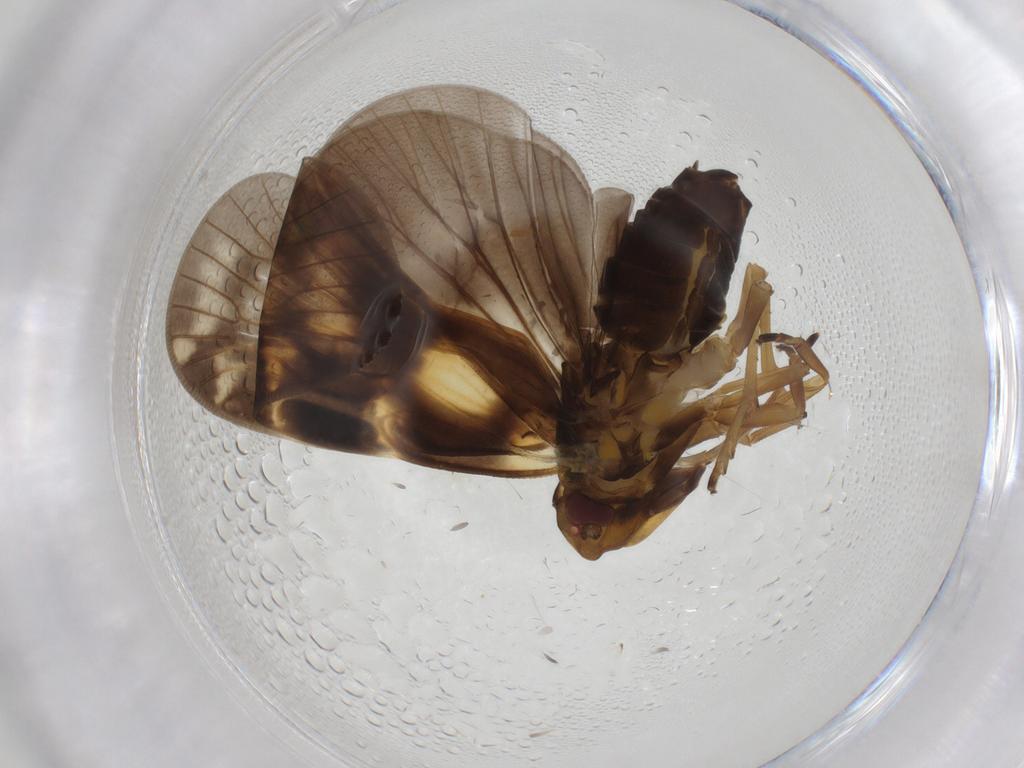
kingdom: Animalia
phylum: Arthropoda
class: Insecta
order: Hemiptera
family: Cixiidae
